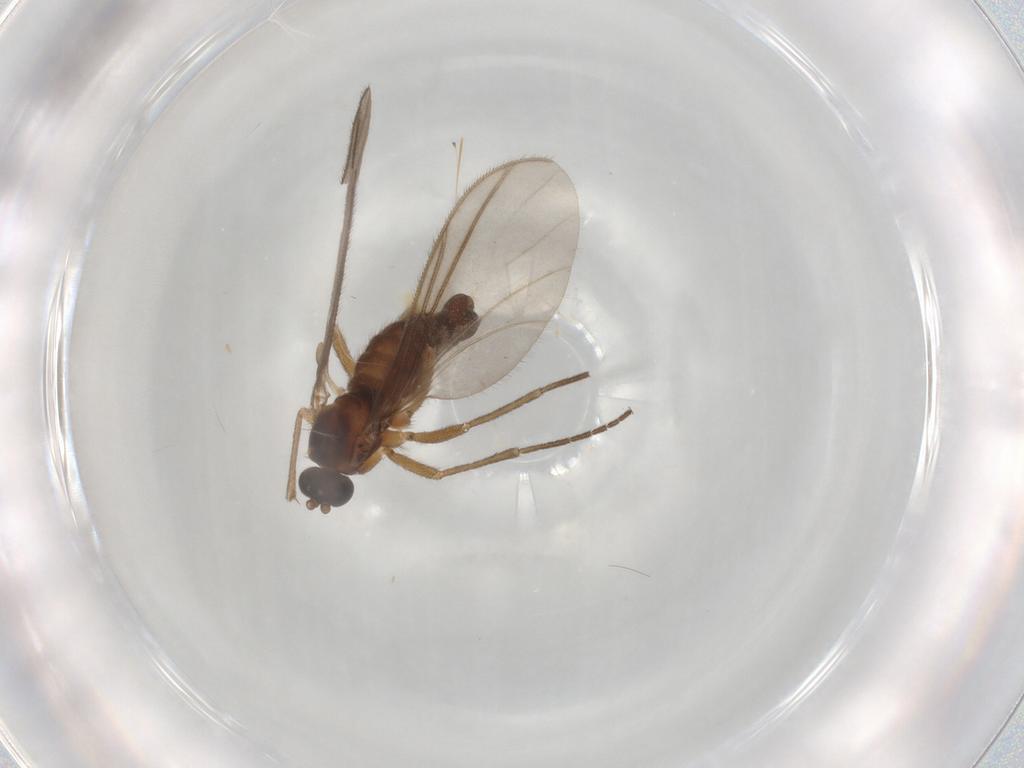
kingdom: Animalia
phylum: Arthropoda
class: Insecta
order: Diptera
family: Sciaridae
